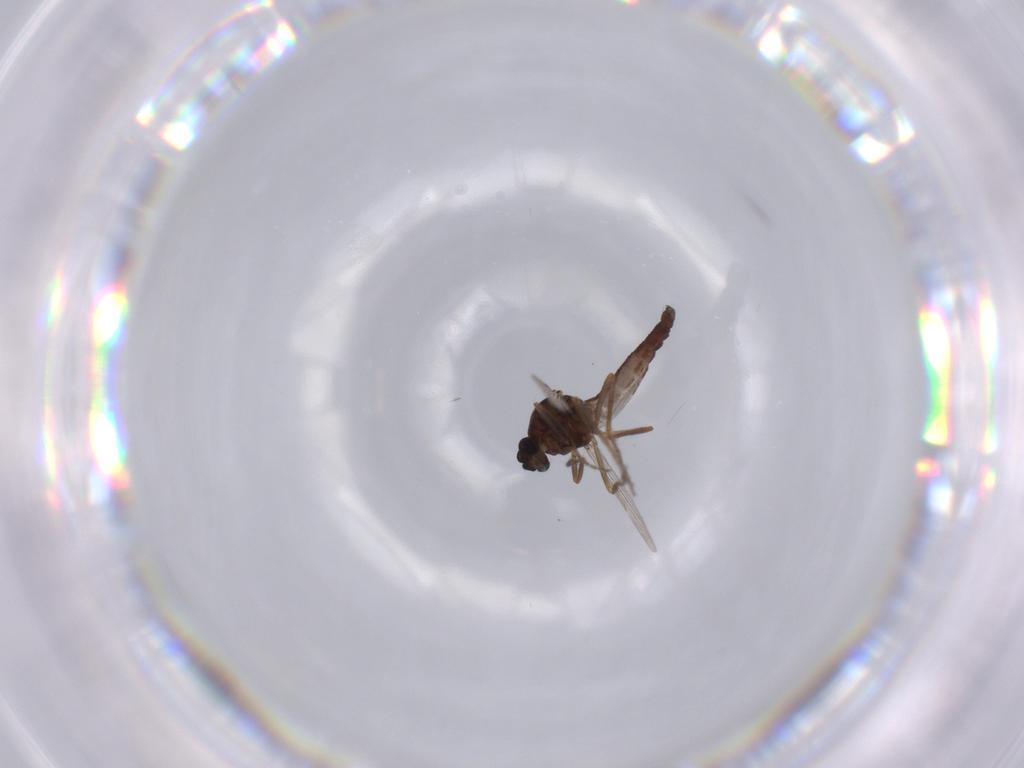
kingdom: Animalia
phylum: Arthropoda
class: Insecta
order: Diptera
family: Ceratopogonidae
